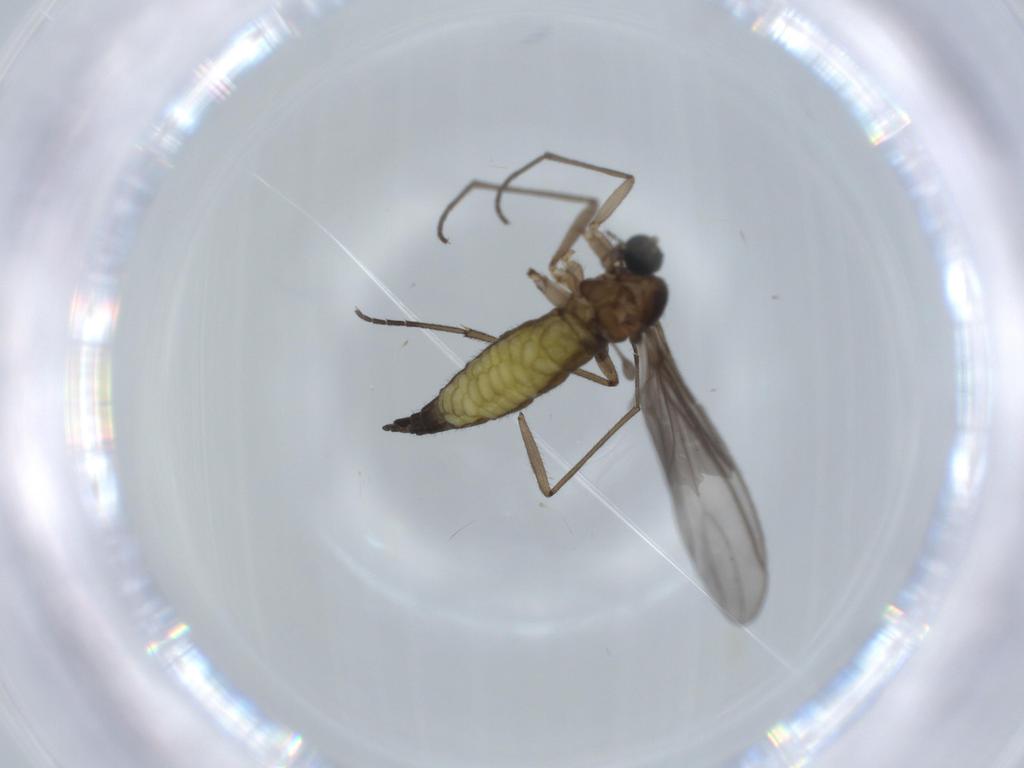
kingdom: Animalia
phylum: Arthropoda
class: Insecta
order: Diptera
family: Sciaridae
